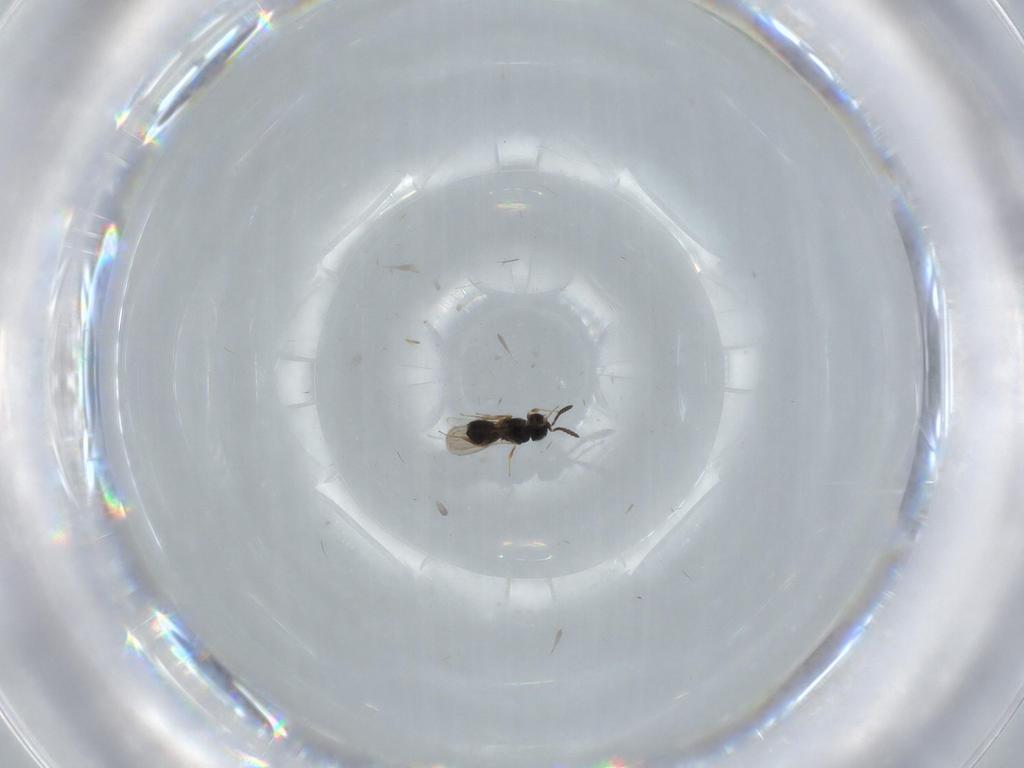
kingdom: Animalia
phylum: Arthropoda
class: Insecta
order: Hymenoptera
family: Scelionidae
